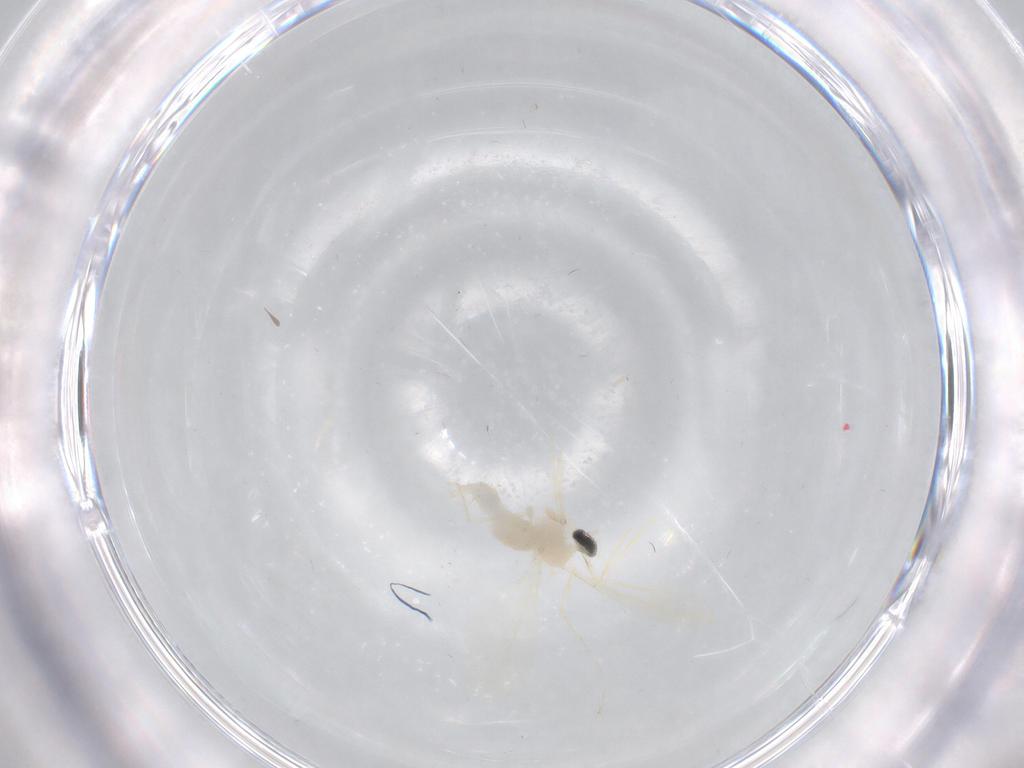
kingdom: Animalia
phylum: Arthropoda
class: Insecta
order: Diptera
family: Cecidomyiidae
